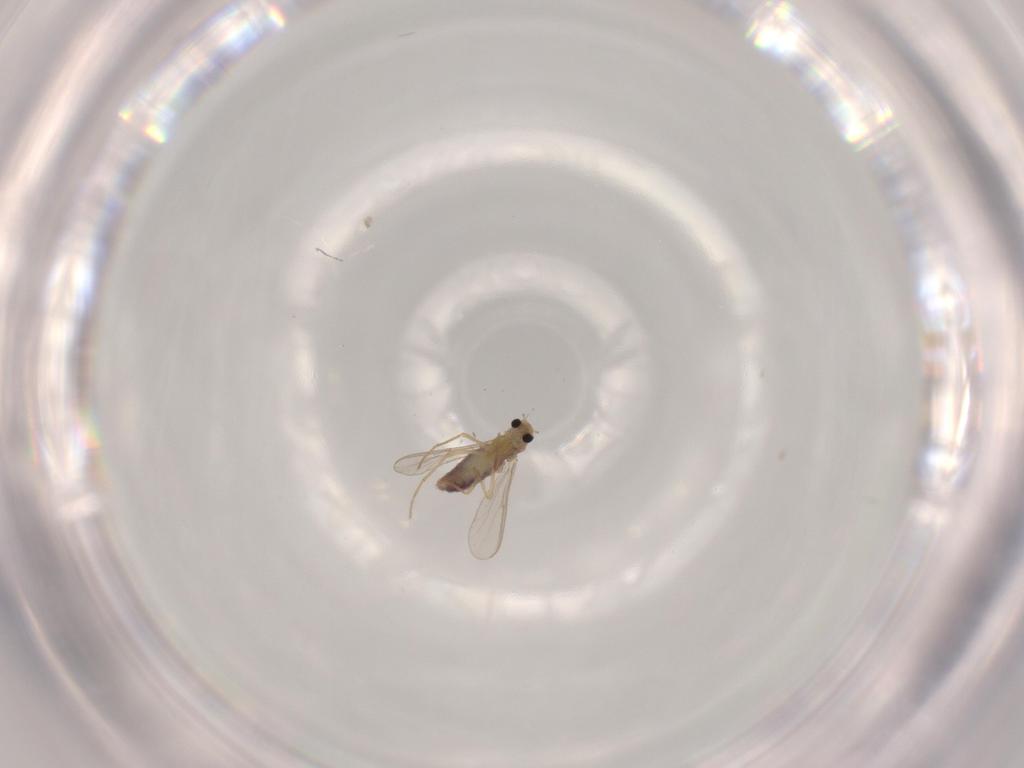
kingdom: Animalia
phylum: Arthropoda
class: Insecta
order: Diptera
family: Chironomidae
